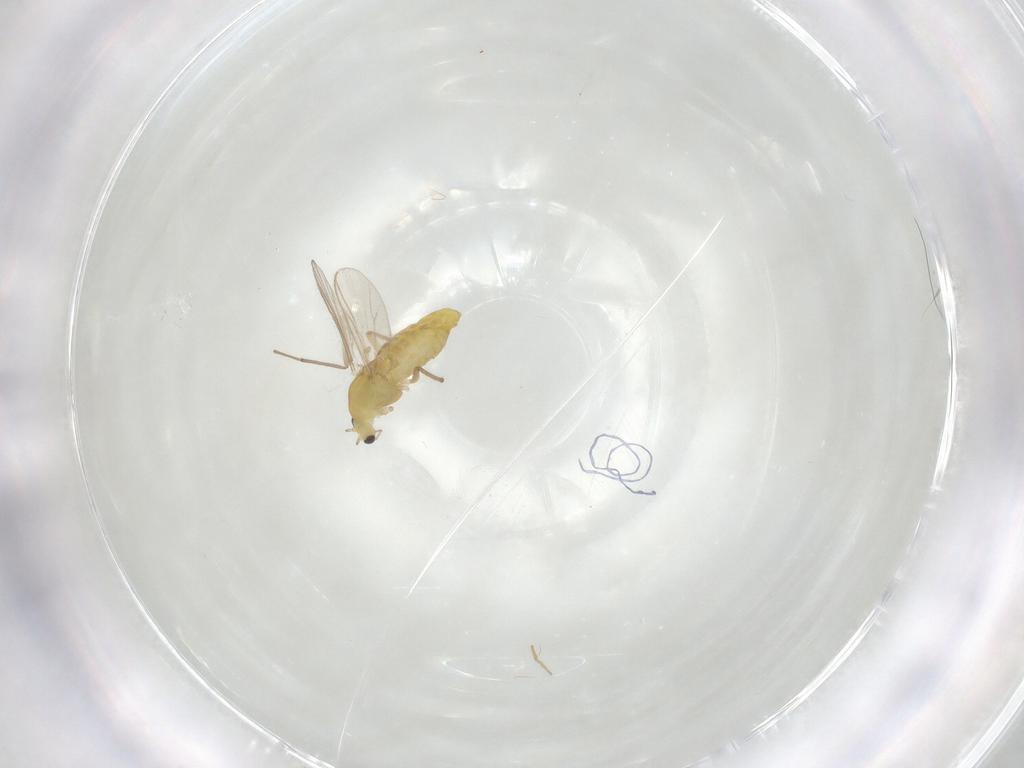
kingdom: Animalia
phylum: Arthropoda
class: Insecta
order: Diptera
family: Chironomidae
